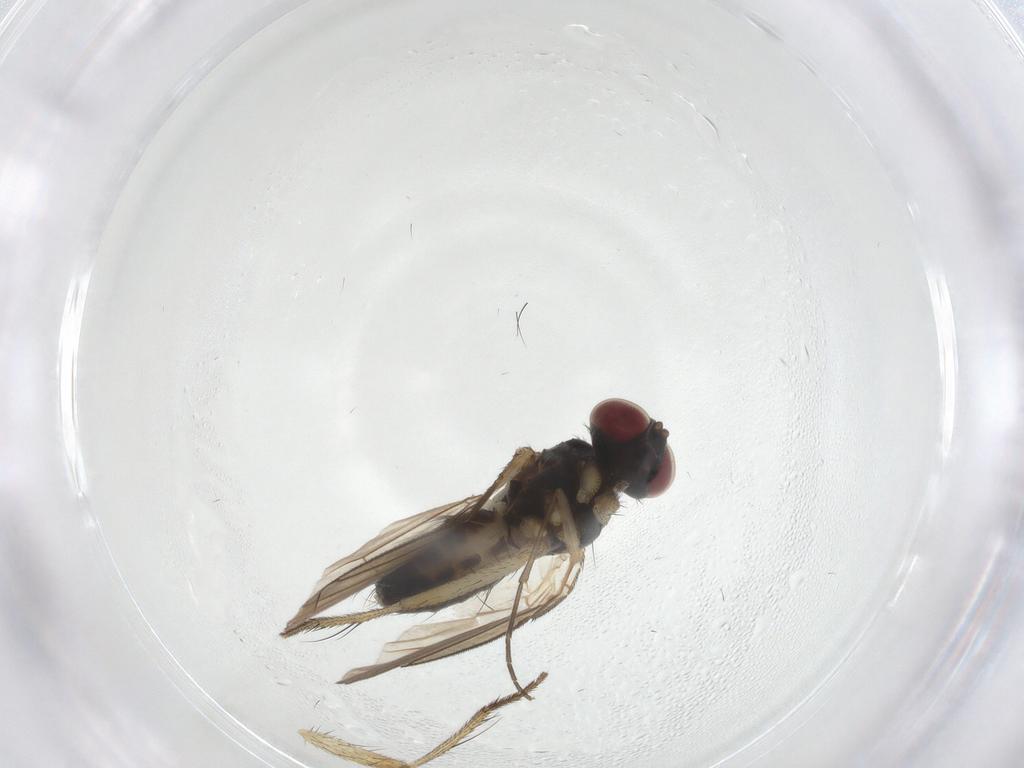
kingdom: Animalia
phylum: Arthropoda
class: Insecta
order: Diptera
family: Muscidae
